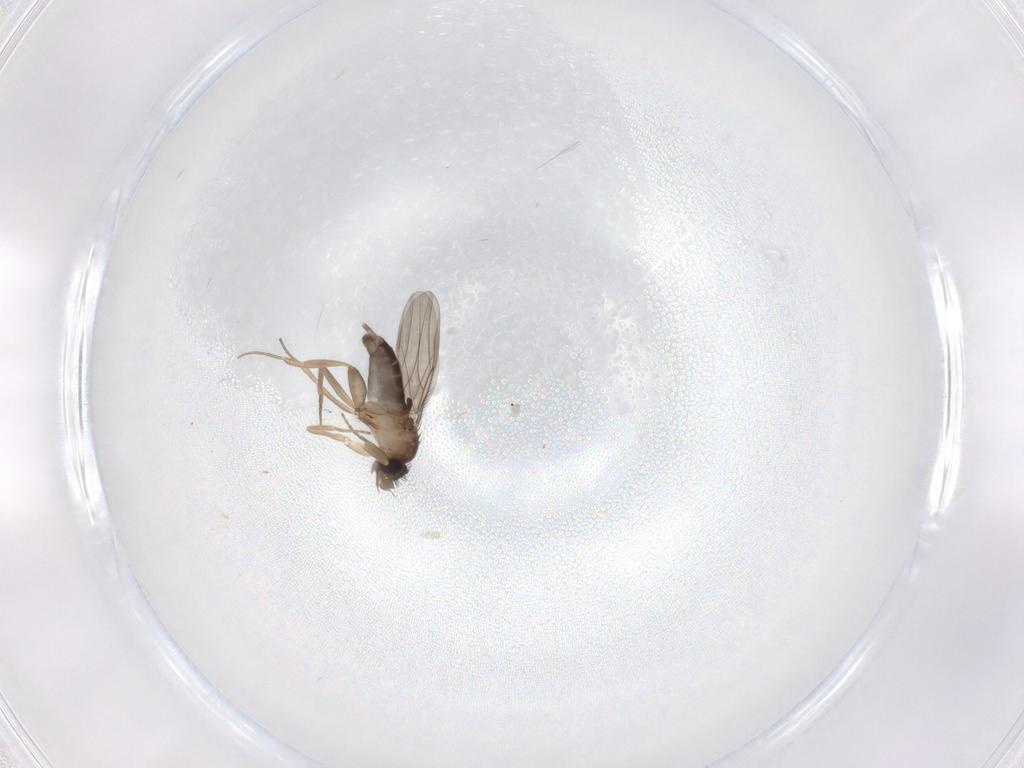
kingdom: Animalia
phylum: Arthropoda
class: Insecta
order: Diptera
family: Phoridae
